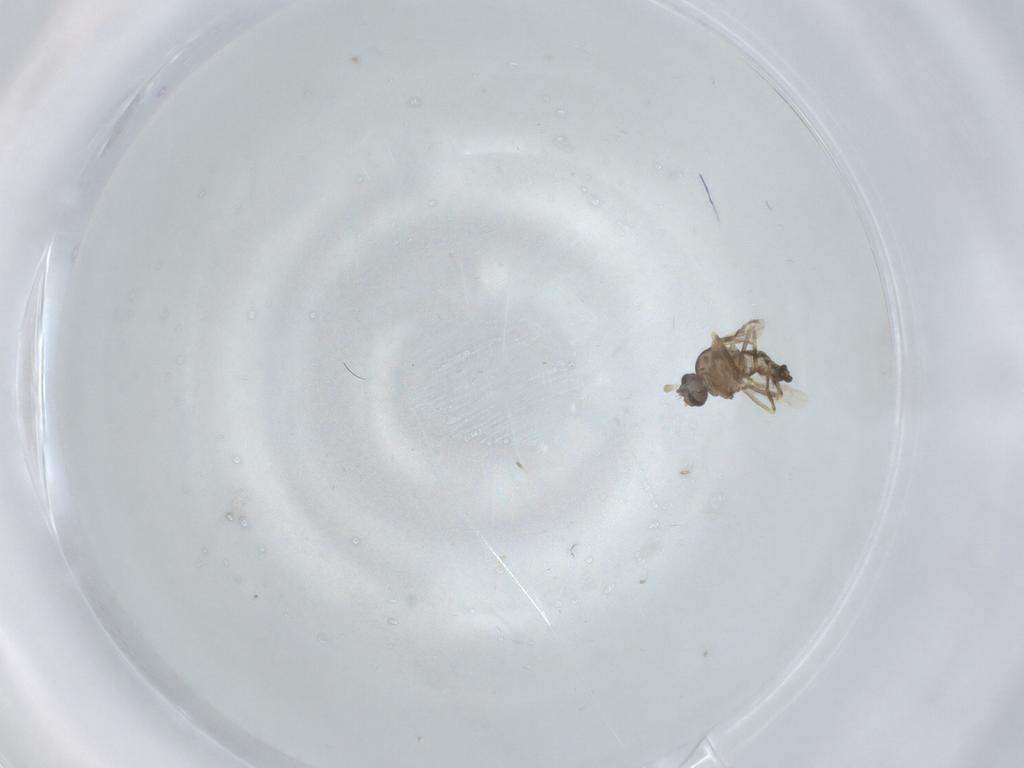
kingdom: Animalia
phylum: Arthropoda
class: Insecta
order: Diptera
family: Ceratopogonidae
